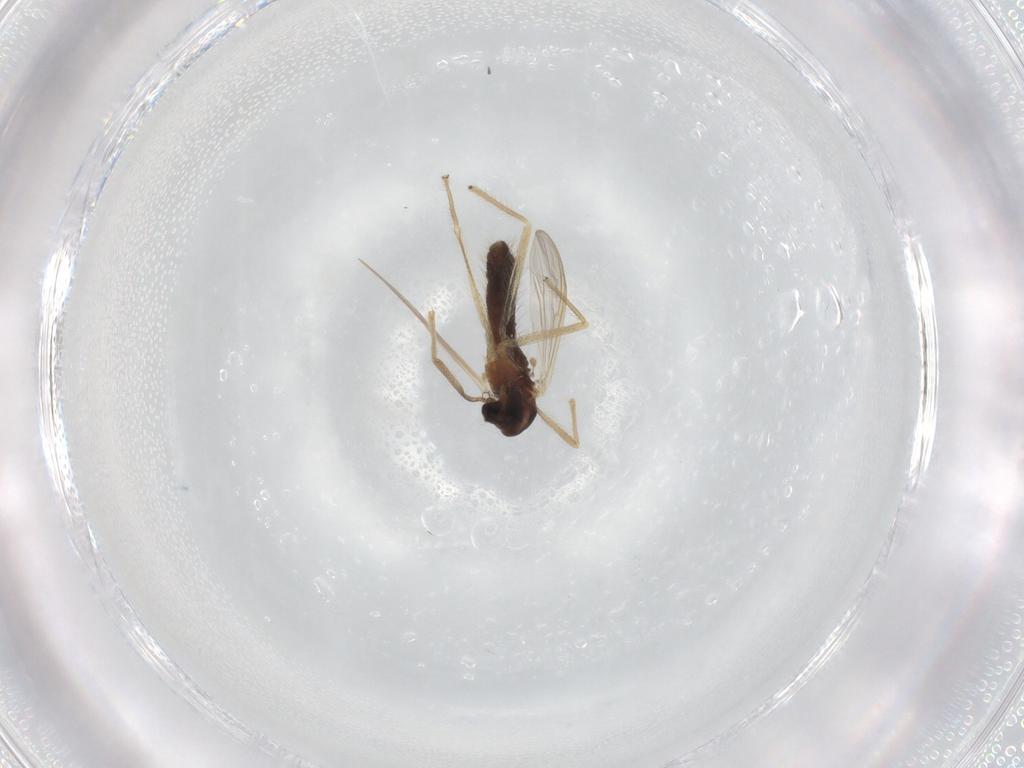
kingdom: Animalia
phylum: Arthropoda
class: Insecta
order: Diptera
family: Chironomidae
